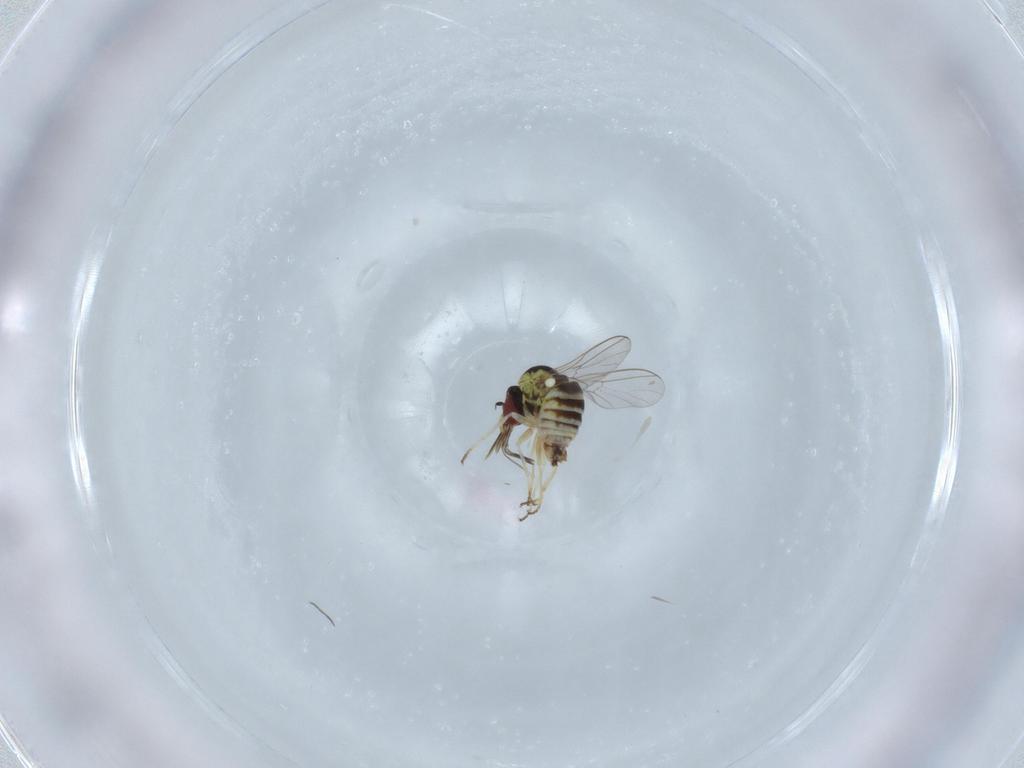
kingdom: Animalia
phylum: Arthropoda
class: Insecta
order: Diptera
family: Bombyliidae
